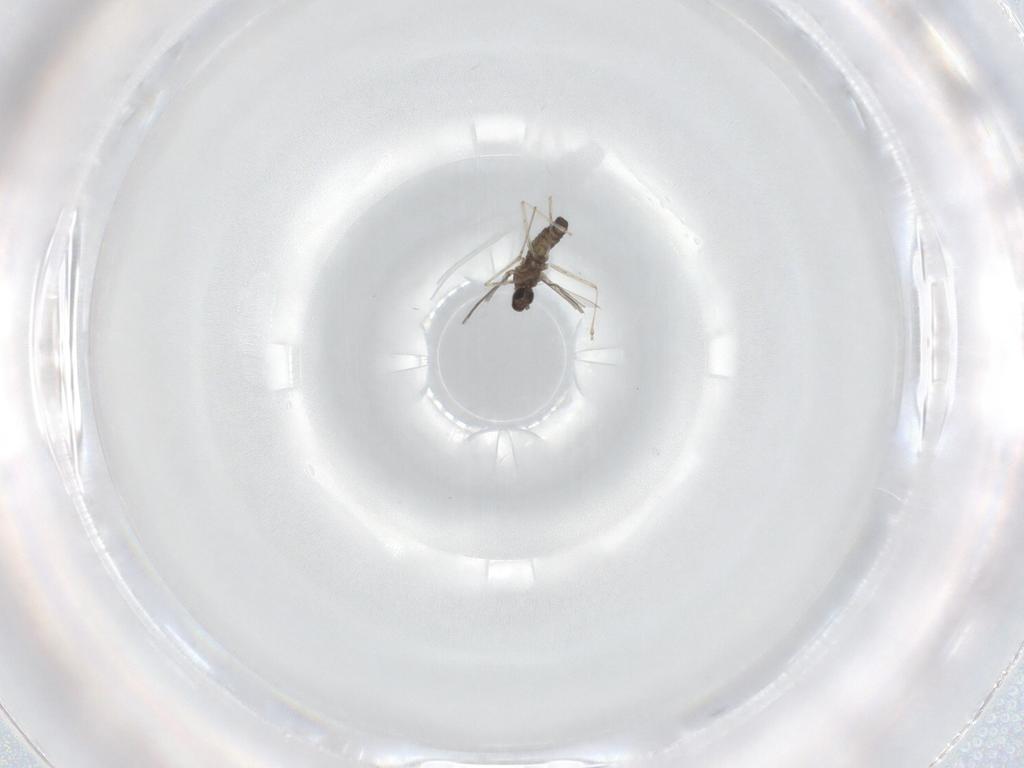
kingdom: Animalia
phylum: Arthropoda
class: Insecta
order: Diptera
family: Cecidomyiidae
